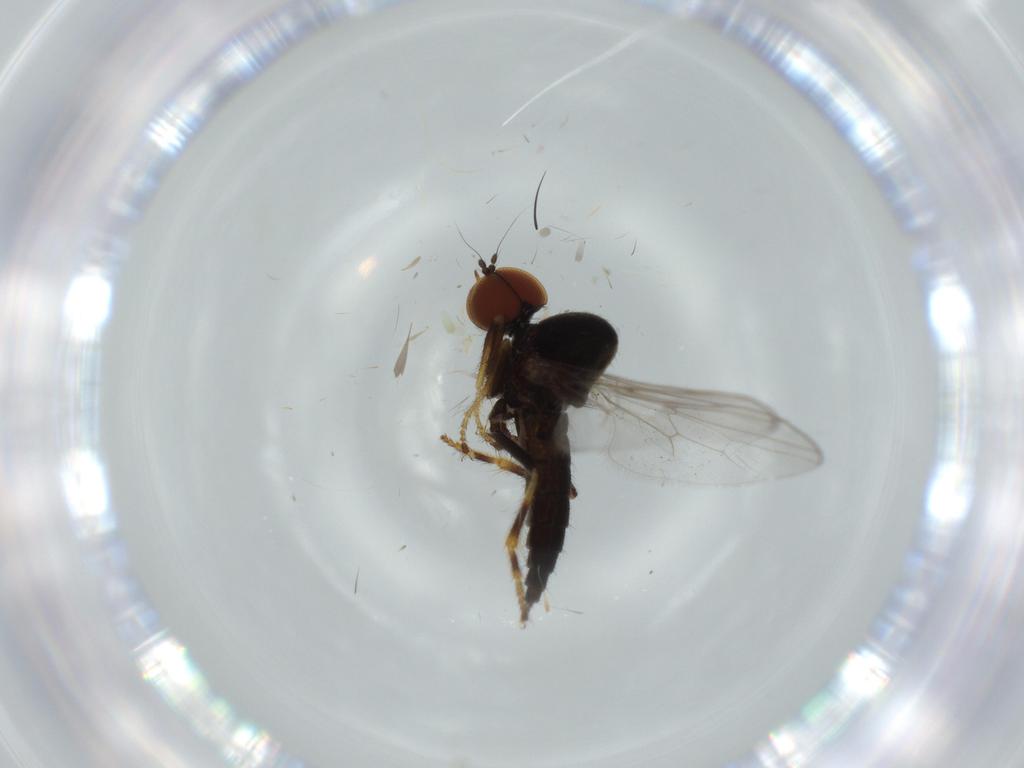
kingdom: Animalia
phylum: Arthropoda
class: Insecta
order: Diptera
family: Hybotidae
